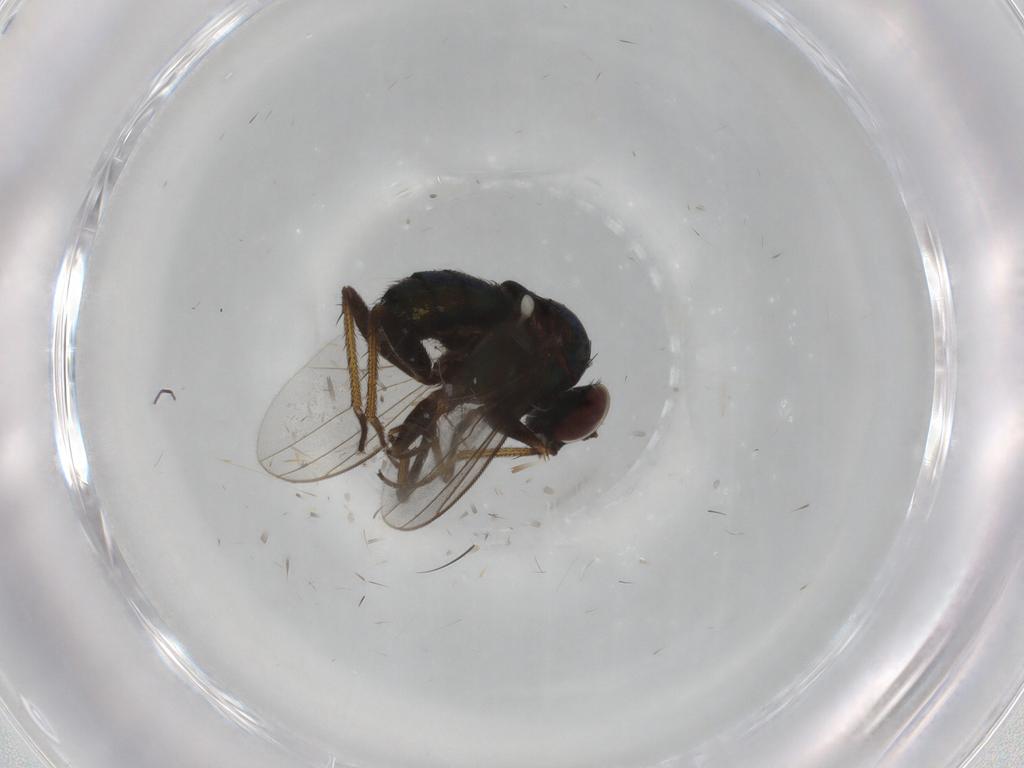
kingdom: Animalia
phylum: Arthropoda
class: Insecta
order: Diptera
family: Dolichopodidae
